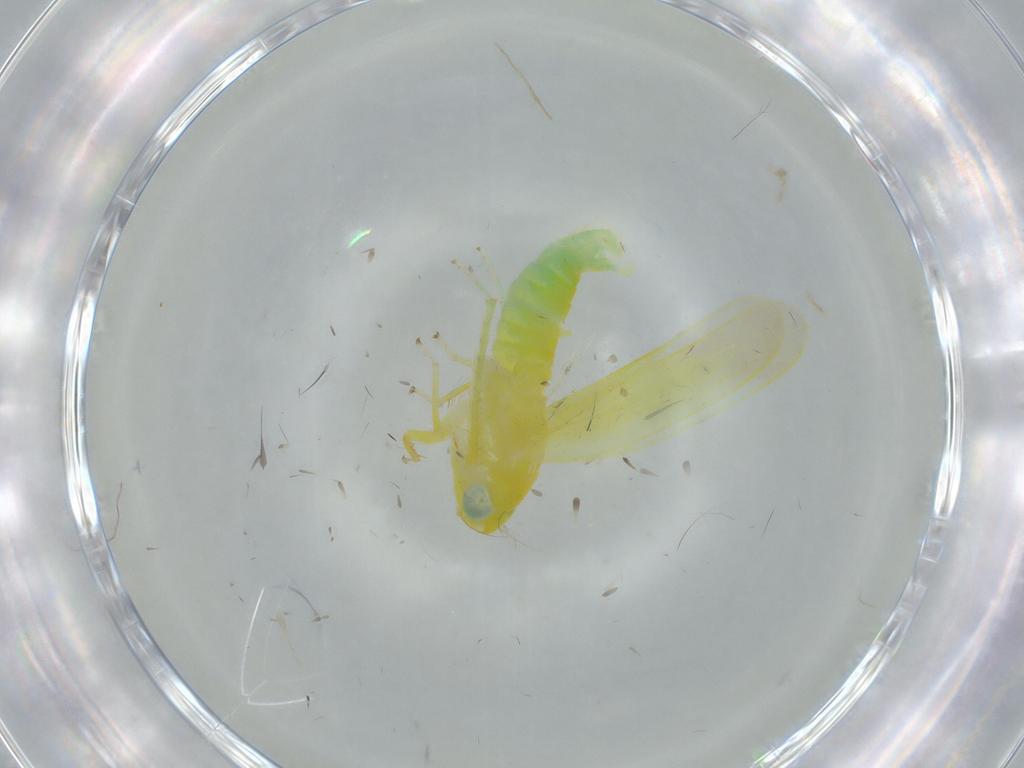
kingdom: Animalia
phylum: Arthropoda
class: Insecta
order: Hemiptera
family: Cicadellidae
